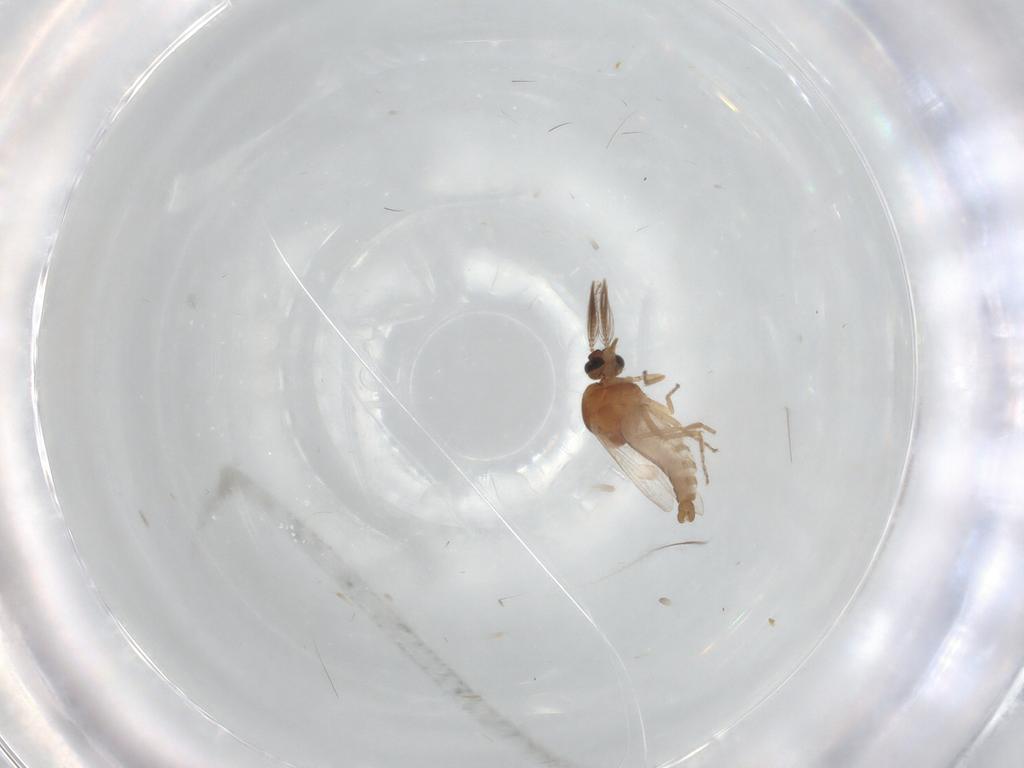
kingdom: Animalia
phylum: Arthropoda
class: Insecta
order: Diptera
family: Ceratopogonidae
